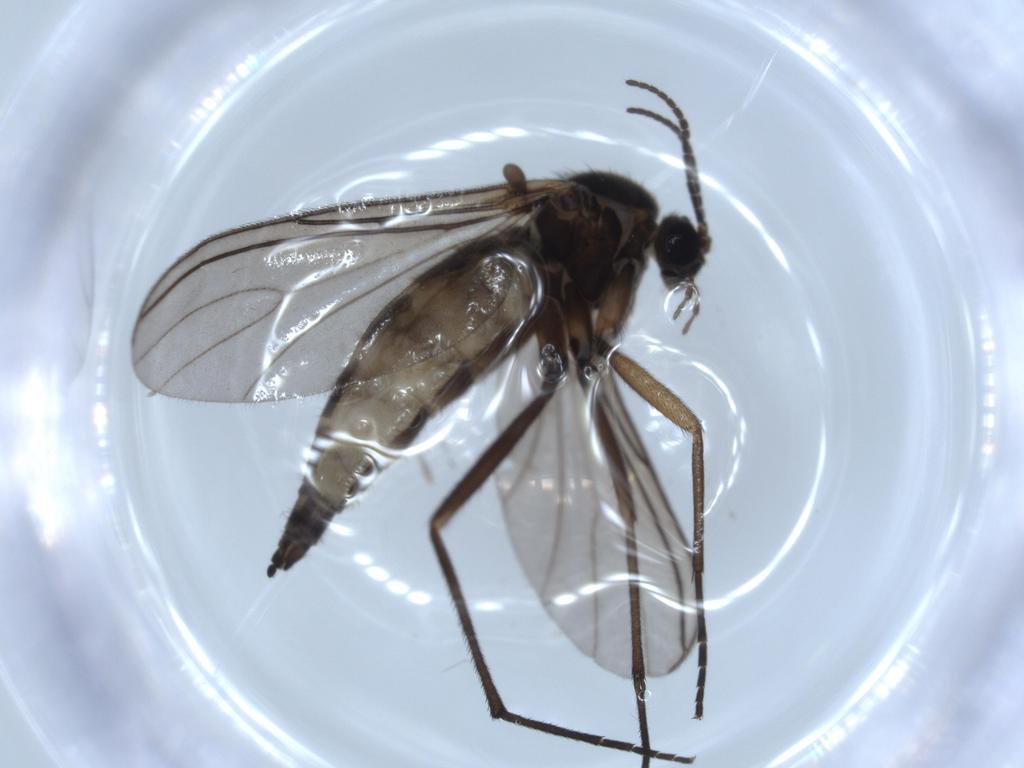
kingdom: Animalia
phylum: Arthropoda
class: Insecta
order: Diptera
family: Sciaridae
